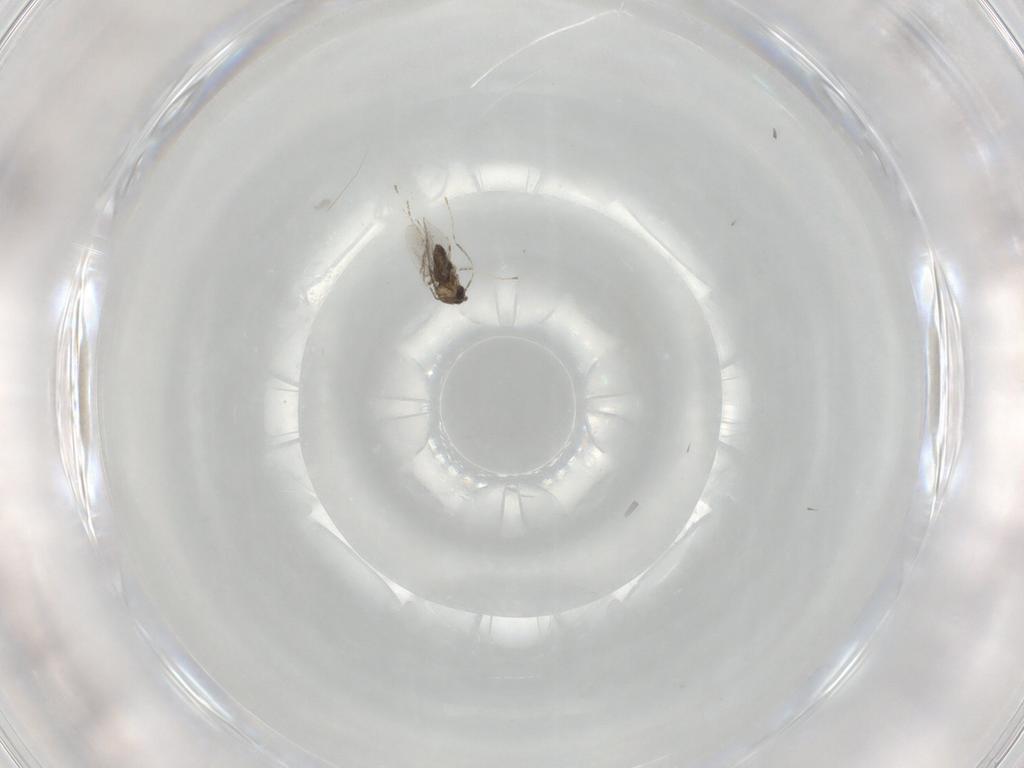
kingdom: Animalia
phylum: Arthropoda
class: Insecta
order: Diptera
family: Cecidomyiidae
